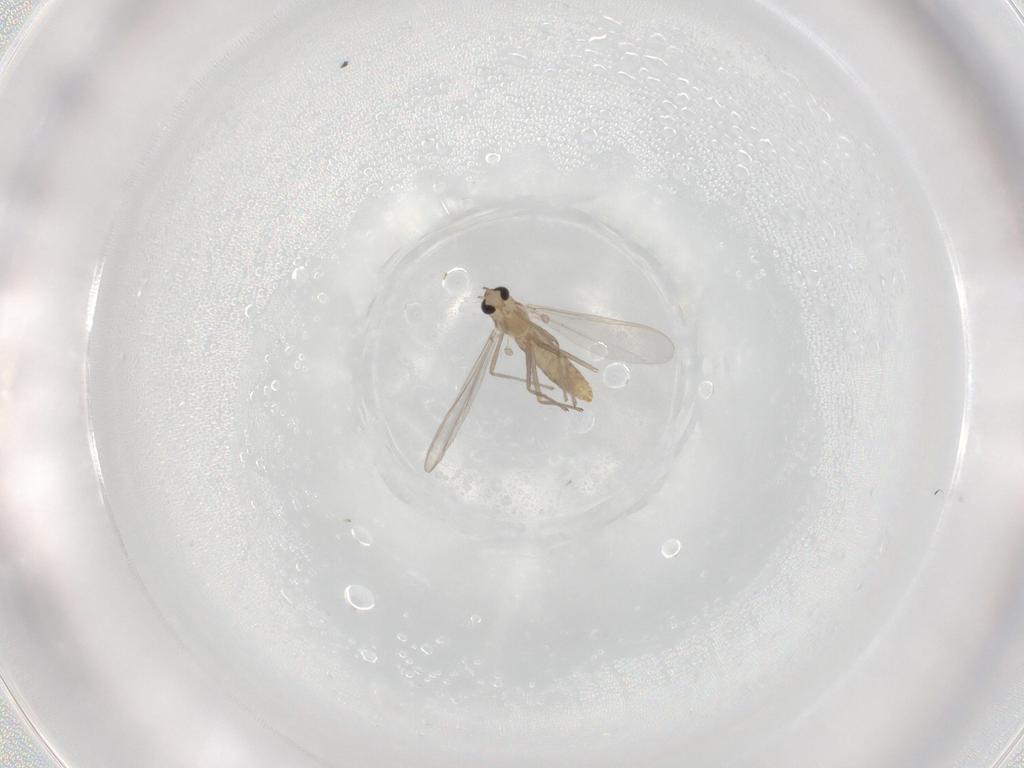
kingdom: Animalia
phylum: Arthropoda
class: Insecta
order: Diptera
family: Chironomidae
